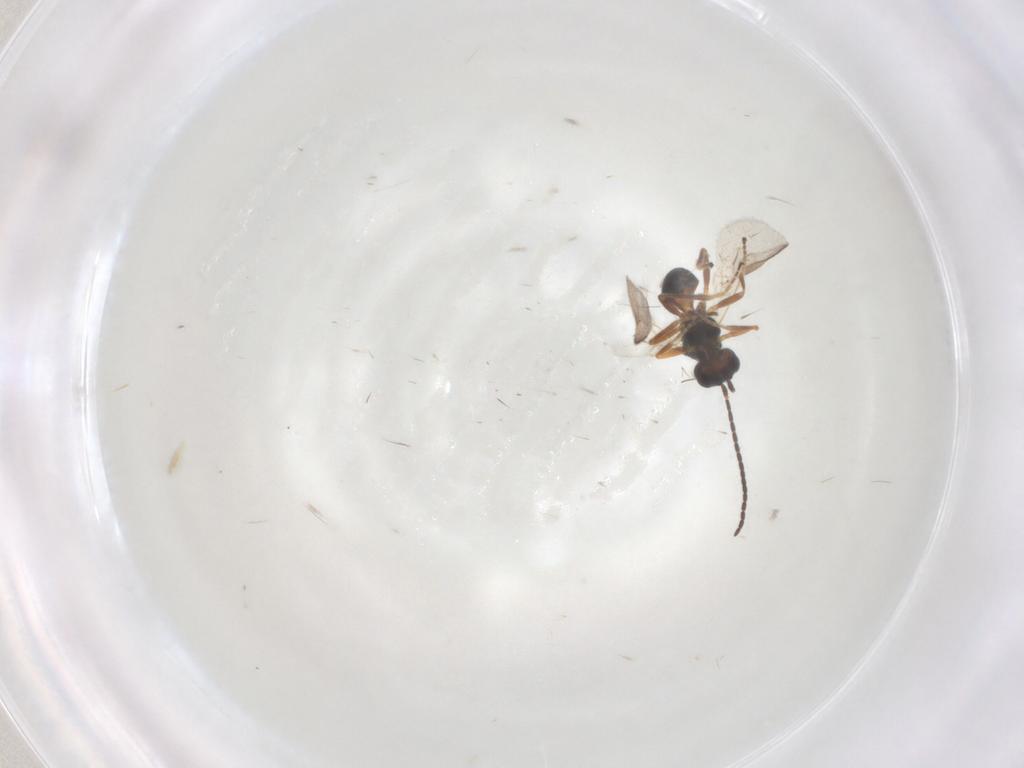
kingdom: Animalia
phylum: Arthropoda
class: Insecta
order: Hymenoptera
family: Braconidae
